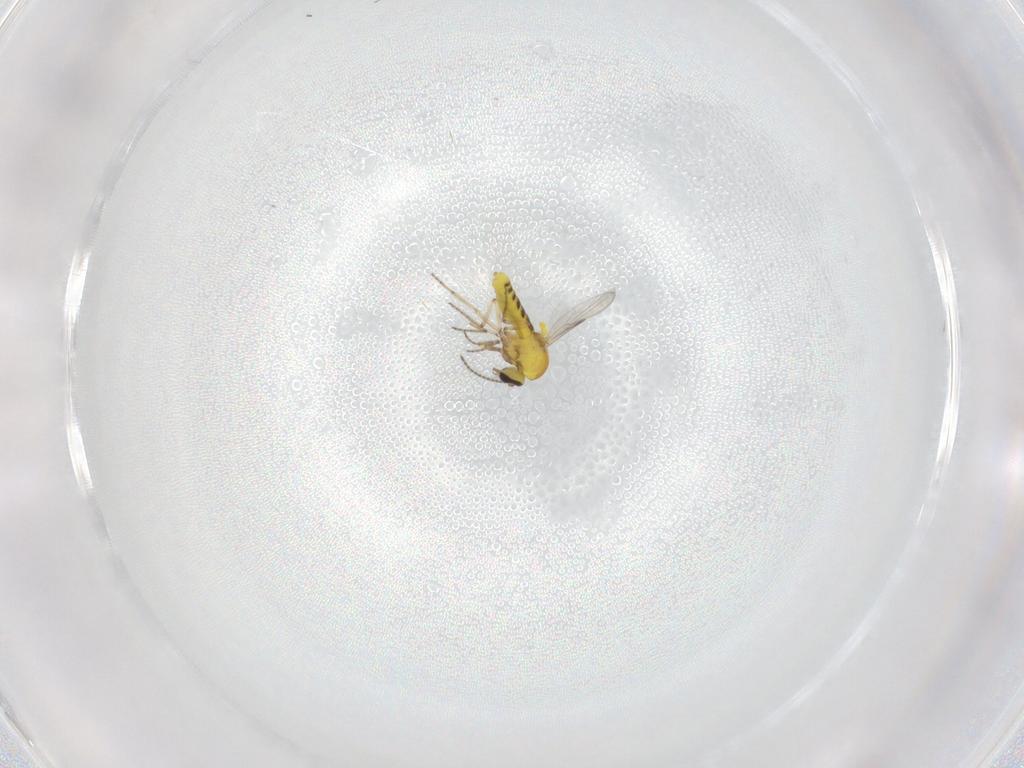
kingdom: Animalia
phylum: Arthropoda
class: Insecta
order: Diptera
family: Ceratopogonidae
